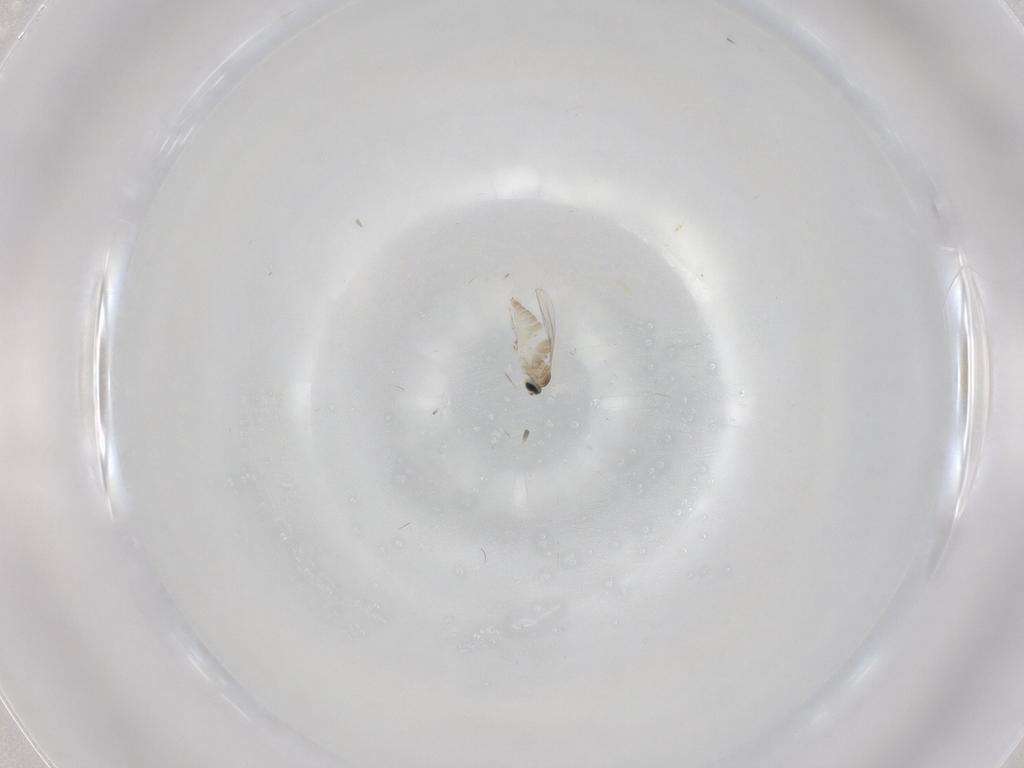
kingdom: Animalia
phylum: Arthropoda
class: Insecta
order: Diptera
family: Cecidomyiidae
